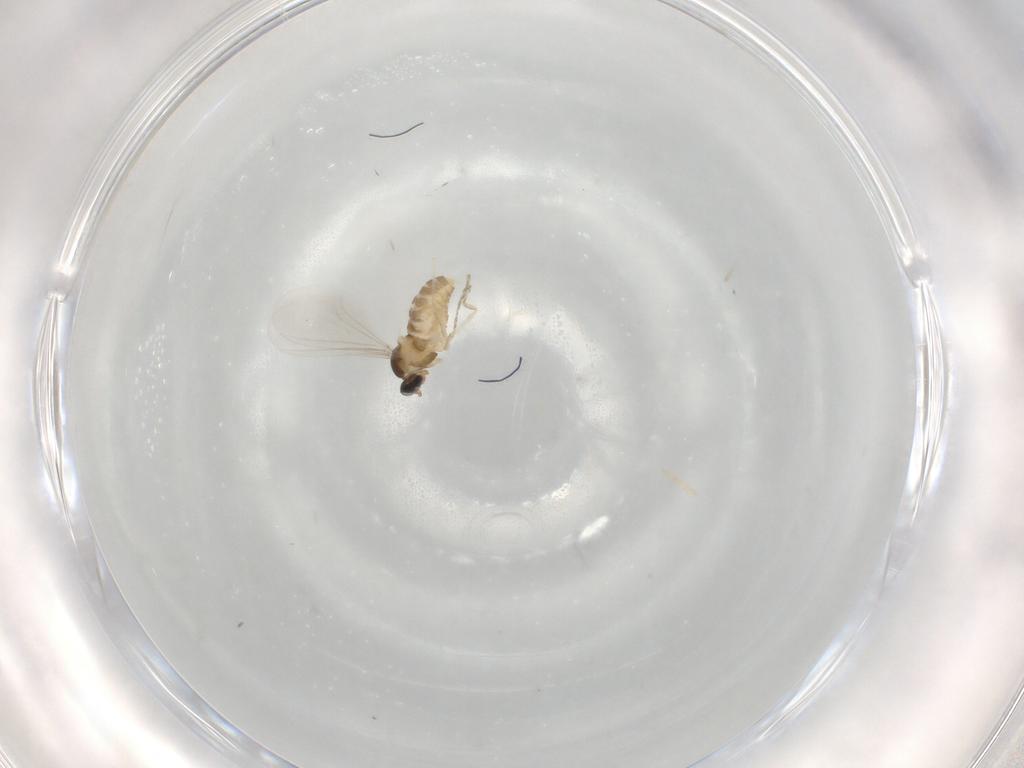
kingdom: Animalia
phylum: Arthropoda
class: Insecta
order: Diptera
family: Cecidomyiidae
